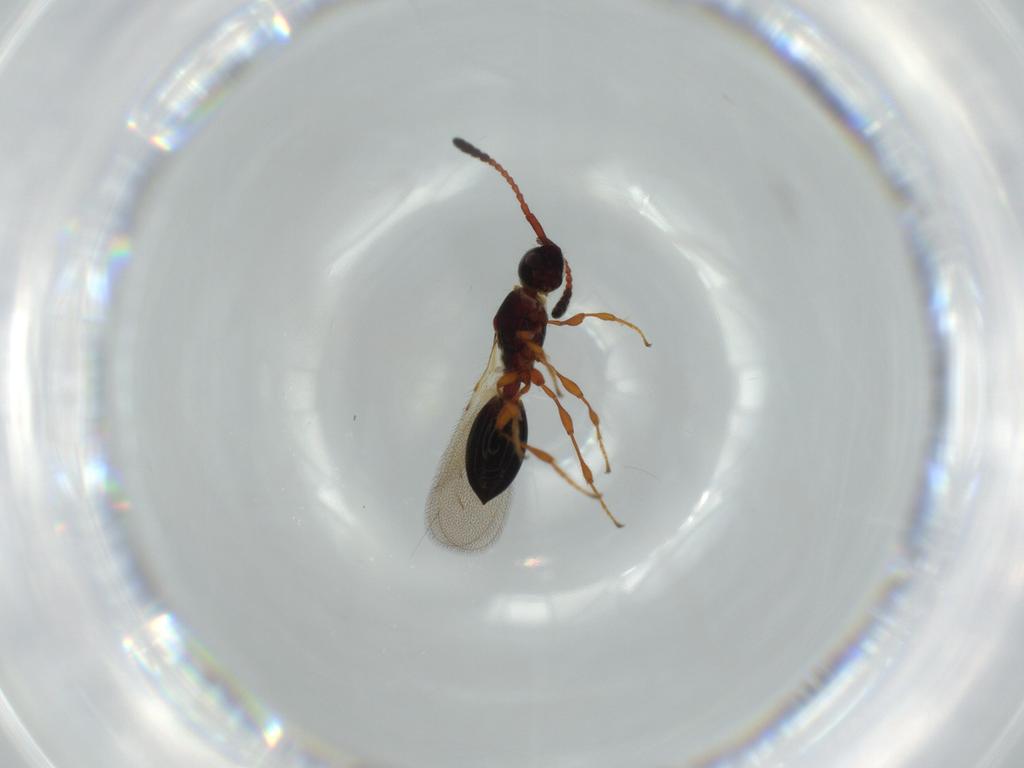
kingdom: Animalia
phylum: Arthropoda
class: Insecta
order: Hymenoptera
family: Diapriidae
